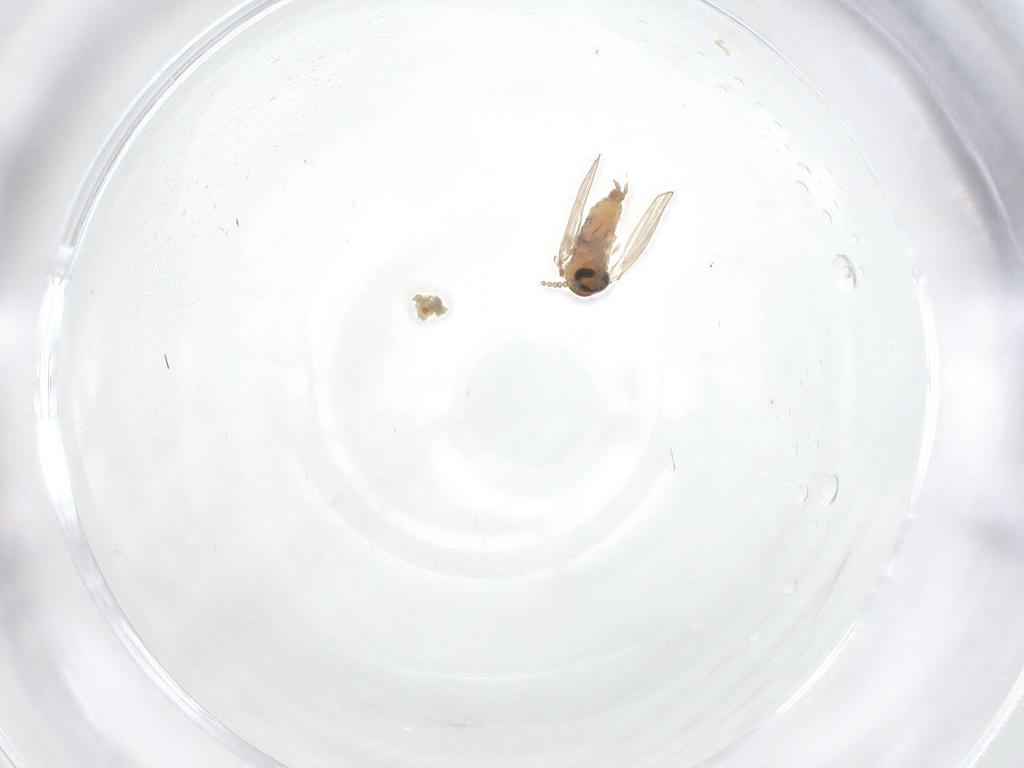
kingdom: Animalia
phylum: Arthropoda
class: Insecta
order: Diptera
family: Psychodidae
